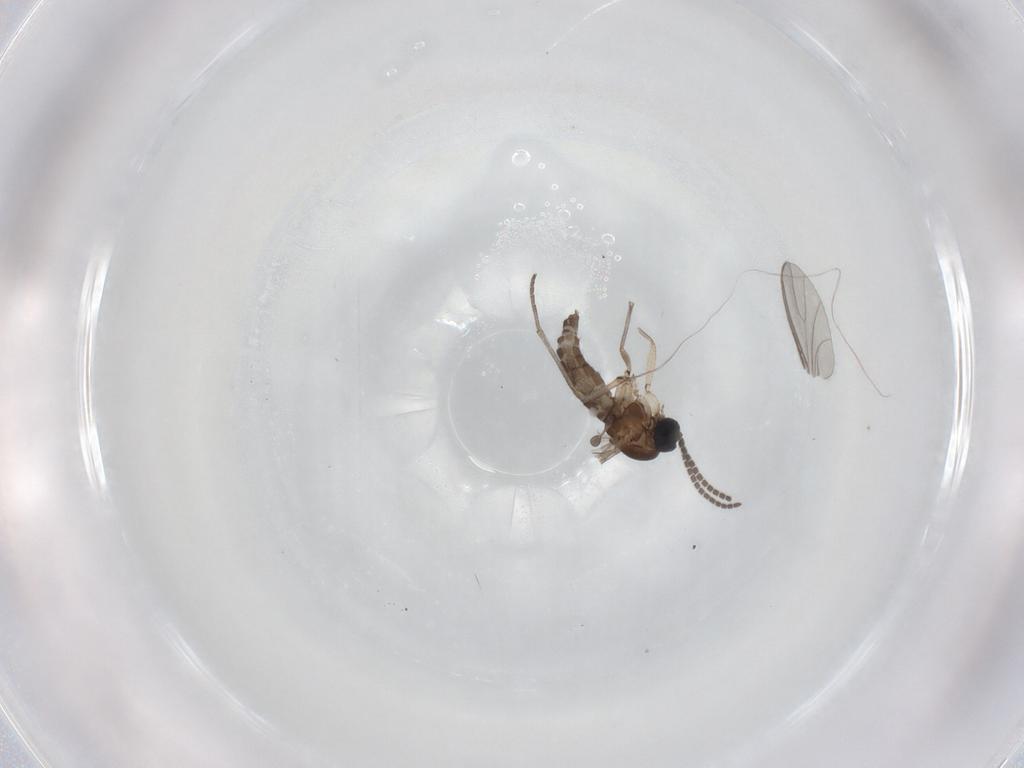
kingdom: Animalia
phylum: Arthropoda
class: Insecta
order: Diptera
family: Sciaridae
